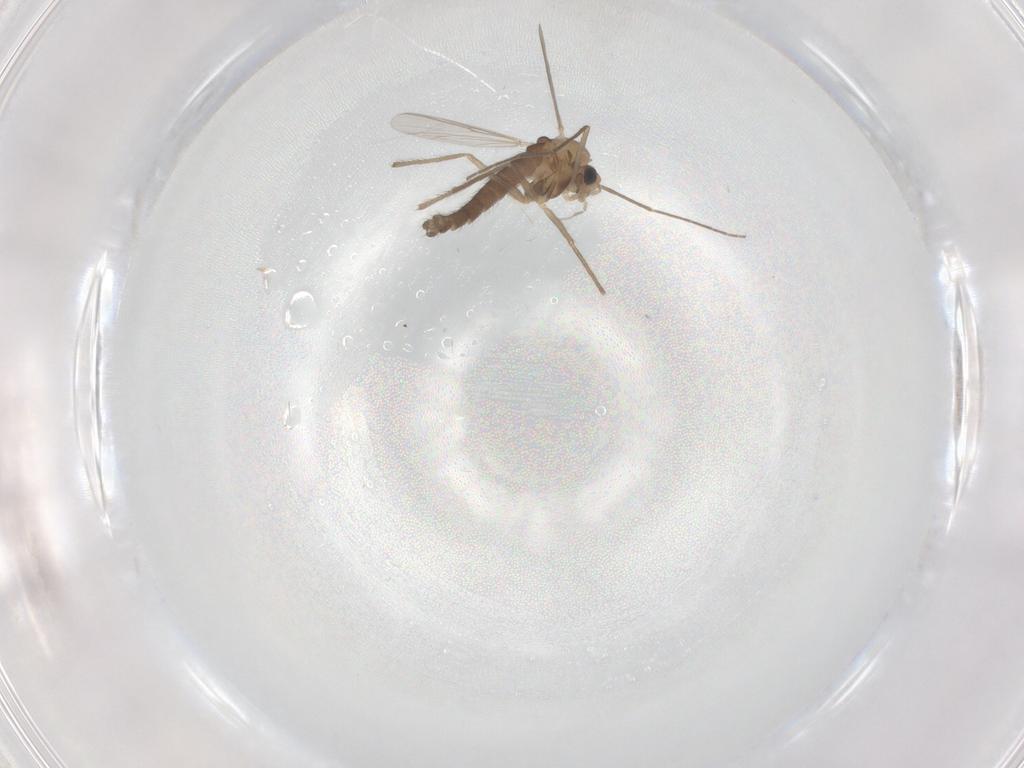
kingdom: Animalia
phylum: Arthropoda
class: Insecta
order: Diptera
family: Chironomidae
